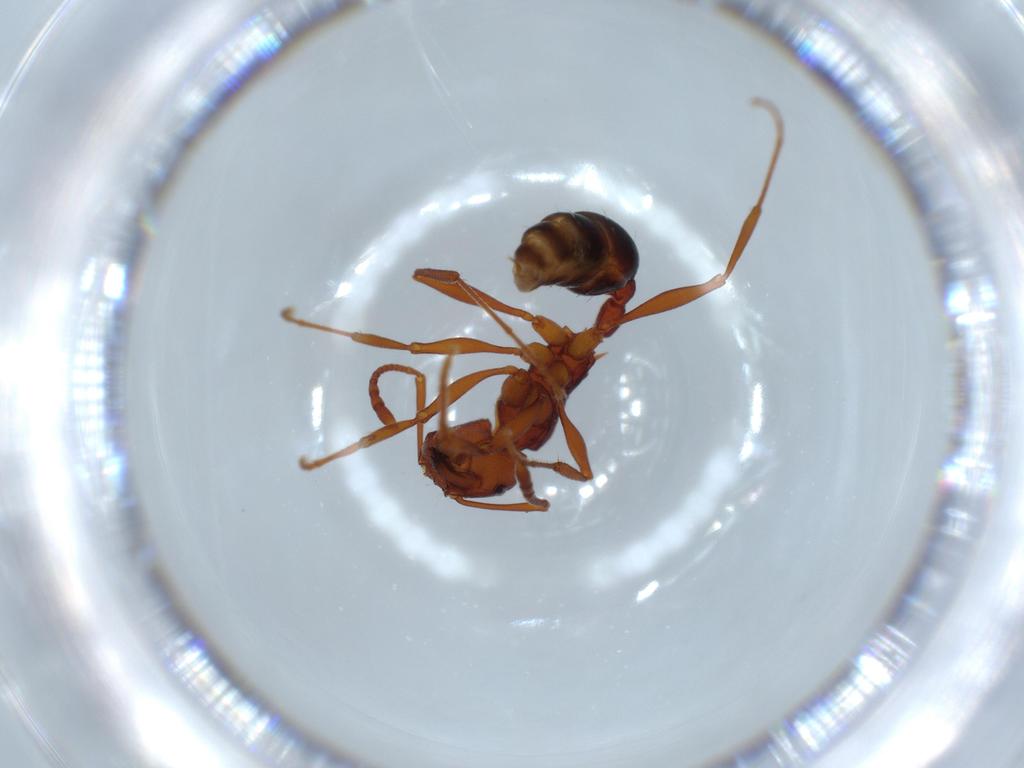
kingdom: Animalia
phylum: Arthropoda
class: Insecta
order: Hymenoptera
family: Formicidae
